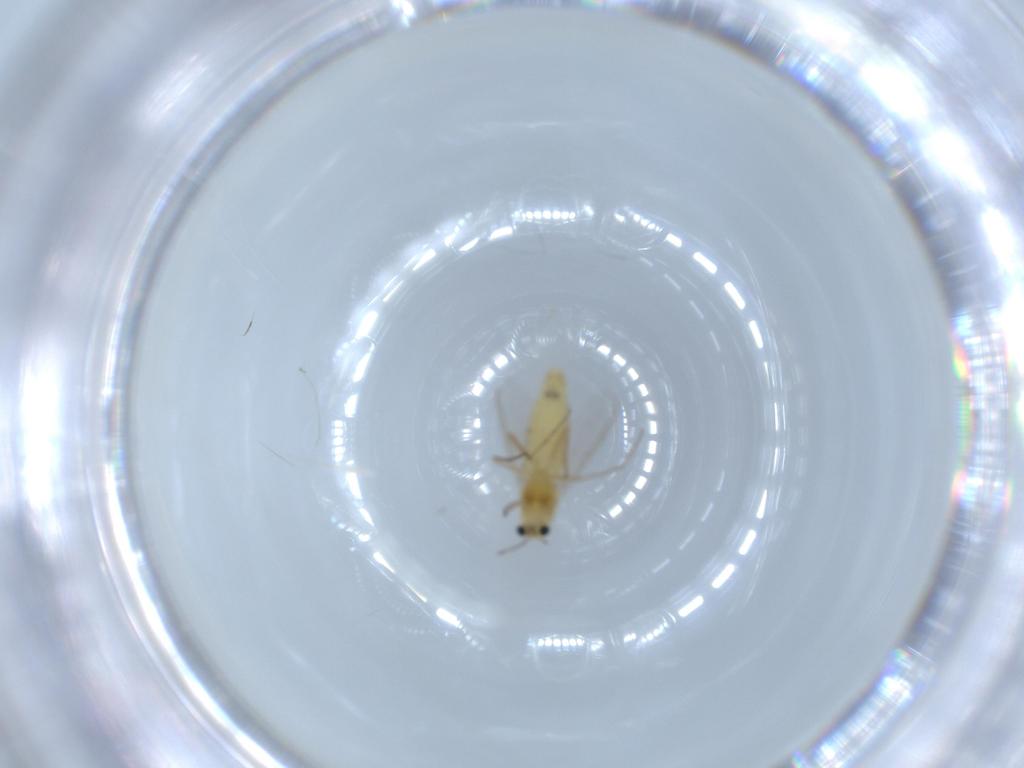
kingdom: Animalia
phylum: Arthropoda
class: Insecta
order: Diptera
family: Chironomidae
